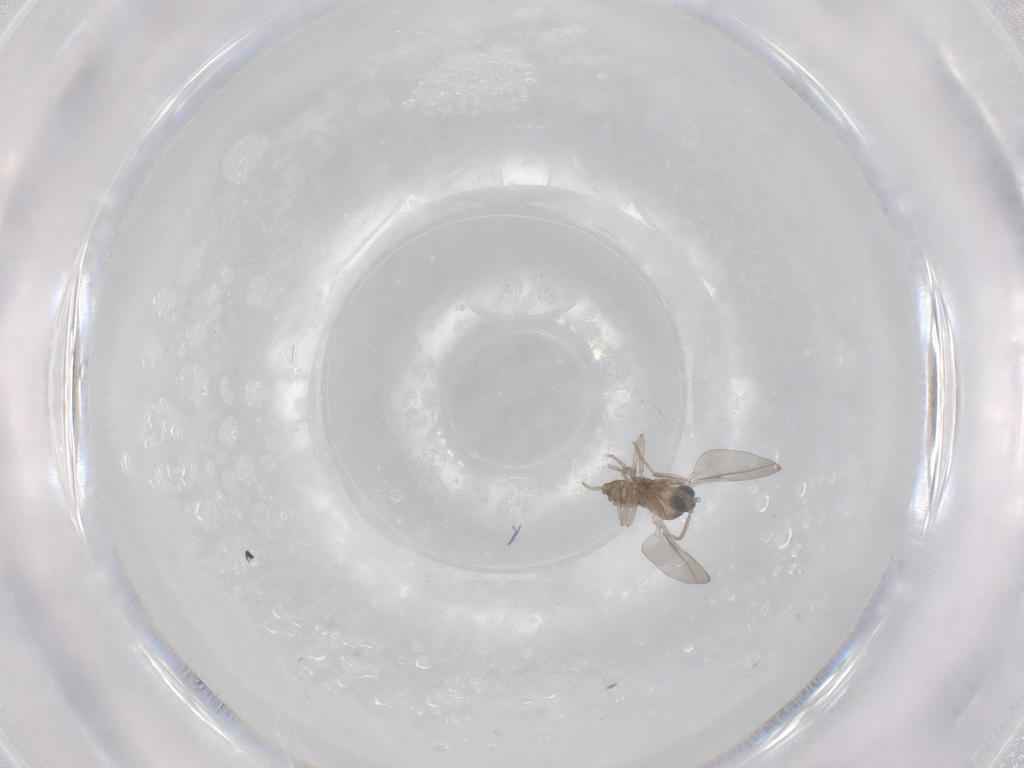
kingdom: Animalia
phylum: Arthropoda
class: Insecta
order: Diptera
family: Cecidomyiidae
